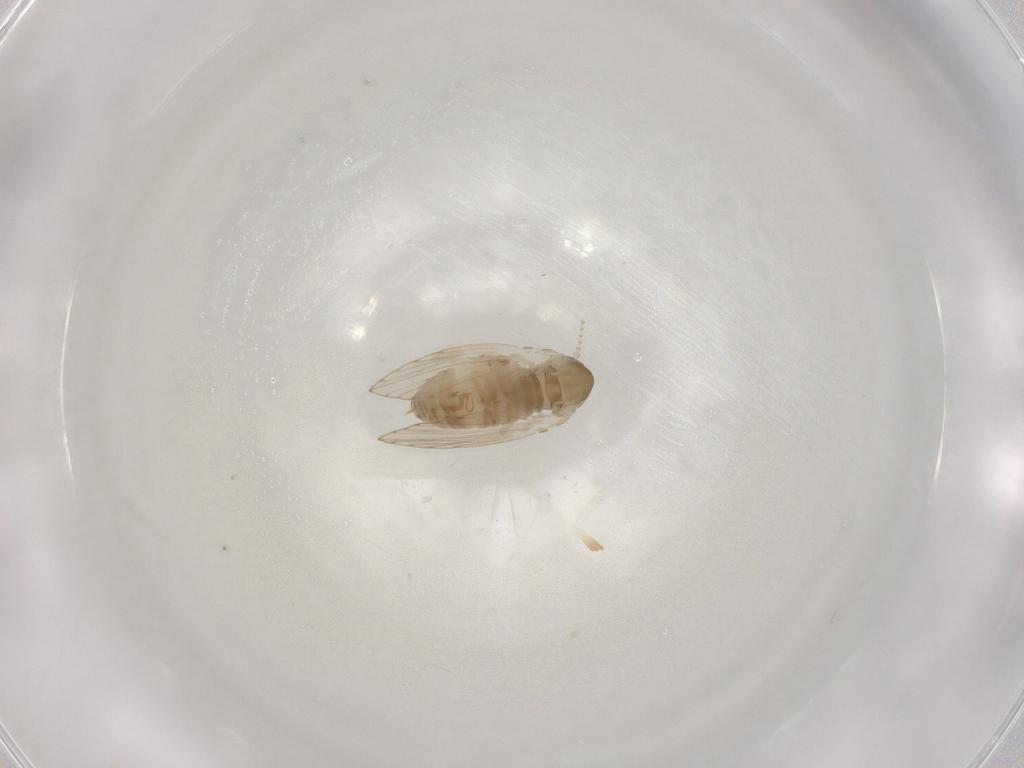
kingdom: Animalia
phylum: Arthropoda
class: Insecta
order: Diptera
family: Psychodidae
